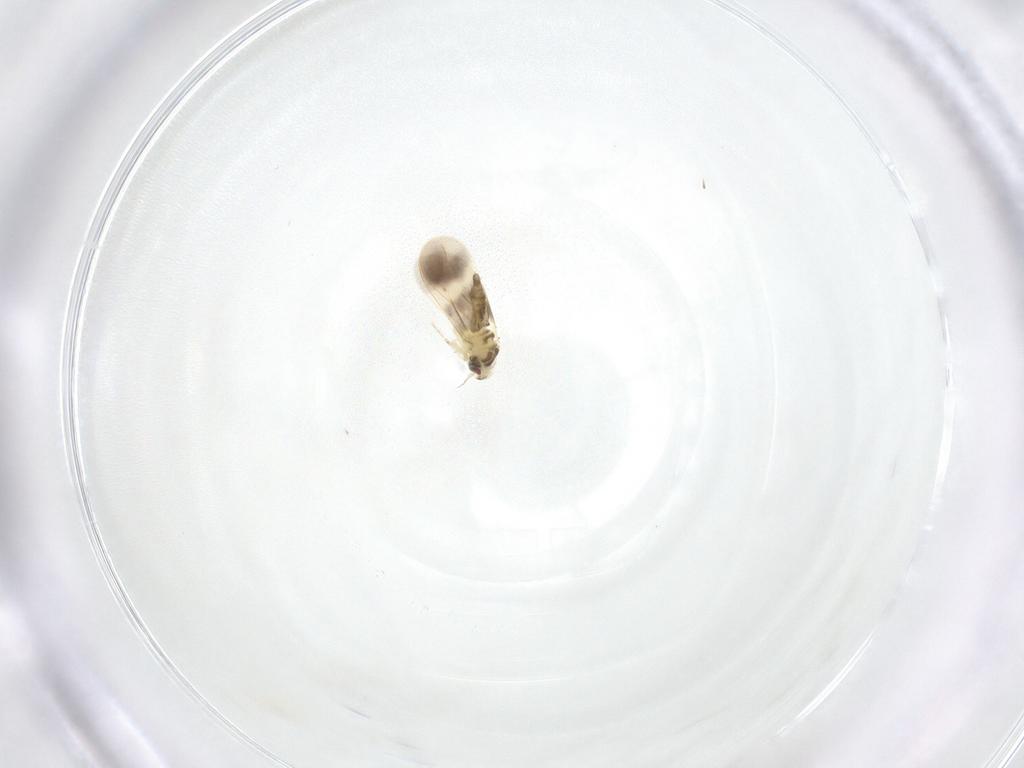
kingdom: Animalia
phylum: Arthropoda
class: Insecta
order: Hemiptera
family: Aleyrodidae
